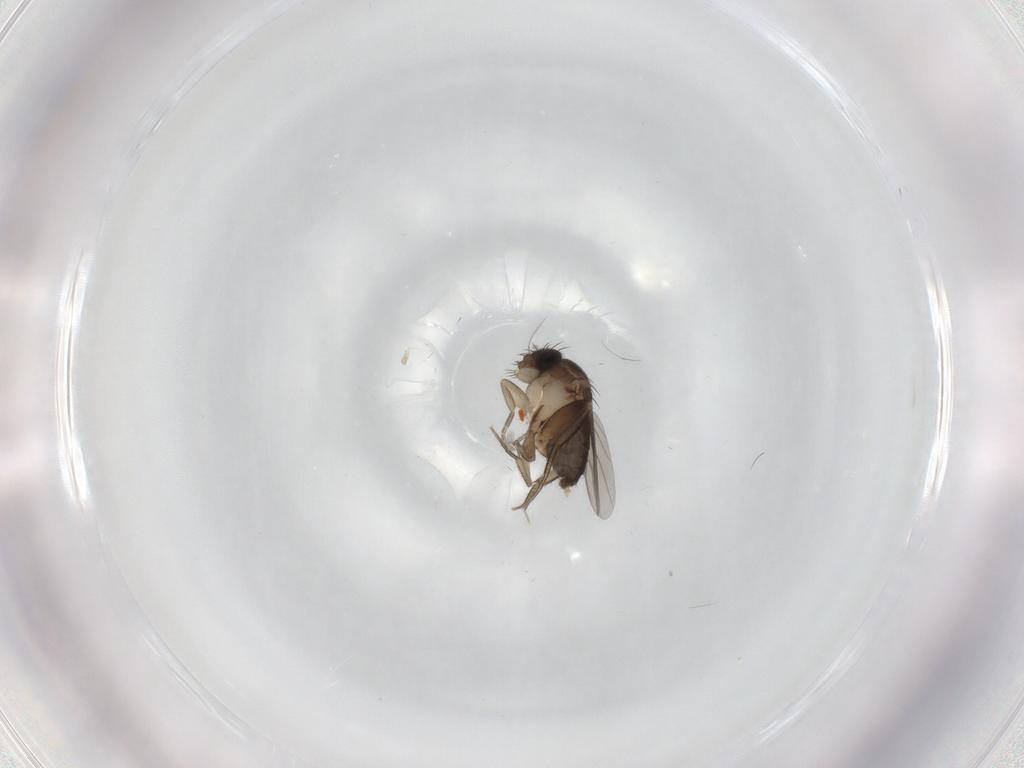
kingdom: Animalia
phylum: Arthropoda
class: Insecta
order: Diptera
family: Phoridae
